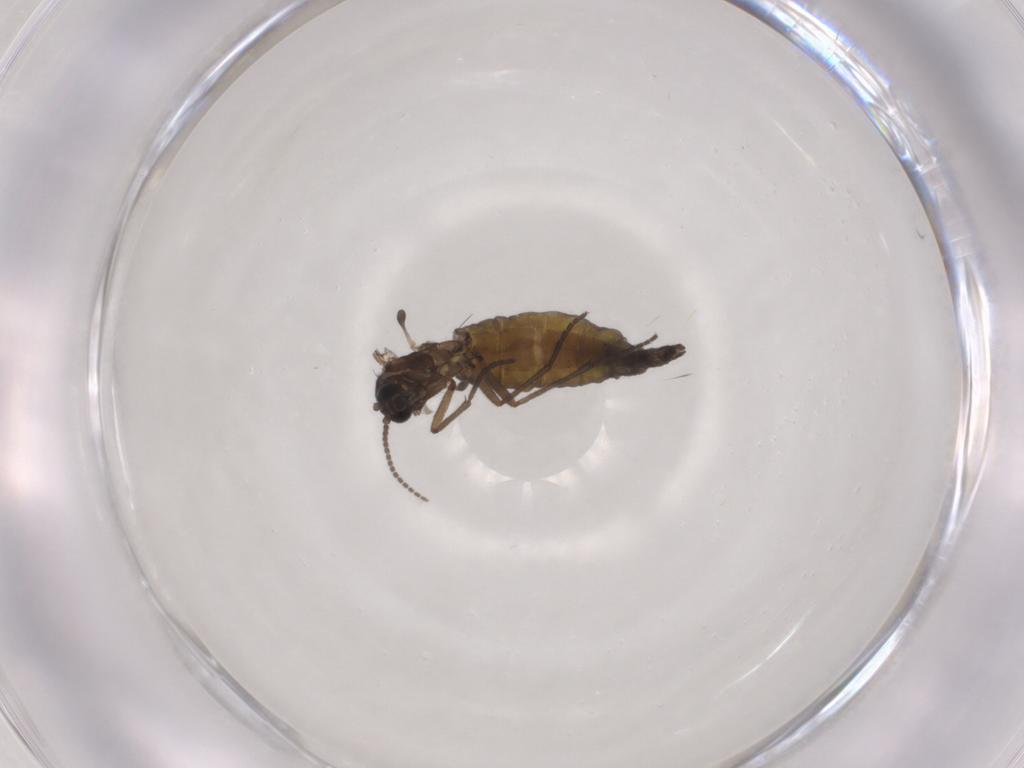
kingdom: Animalia
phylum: Arthropoda
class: Insecta
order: Diptera
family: Sciaridae
